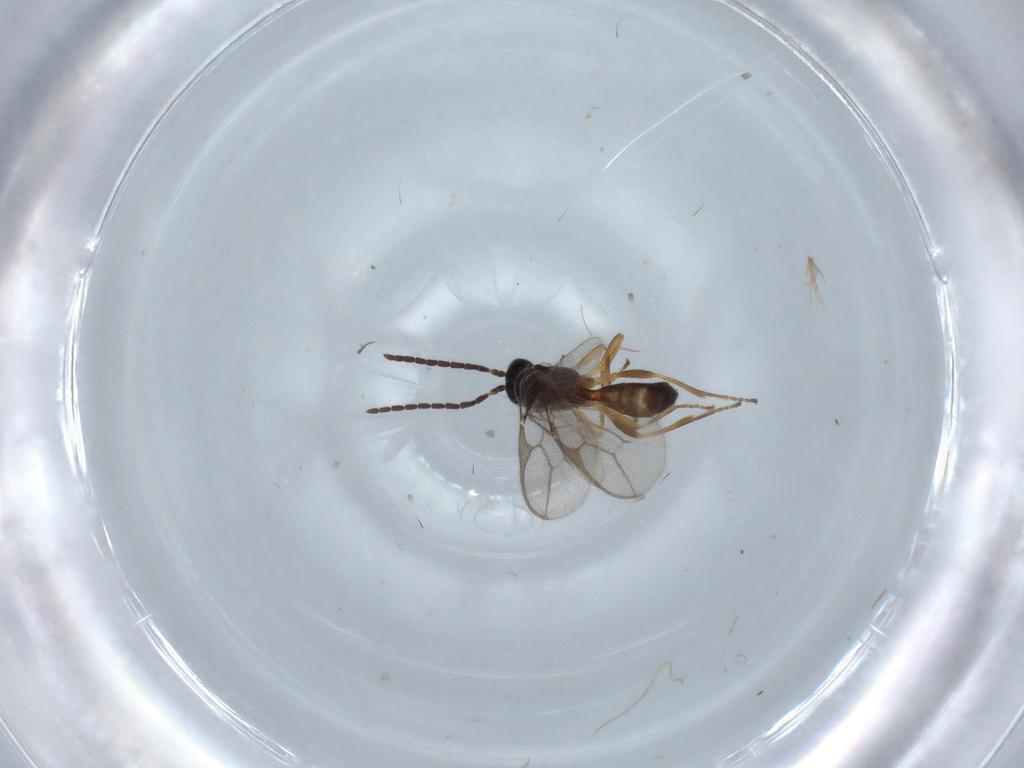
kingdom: Animalia
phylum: Arthropoda
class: Insecta
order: Hymenoptera
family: Braconidae
